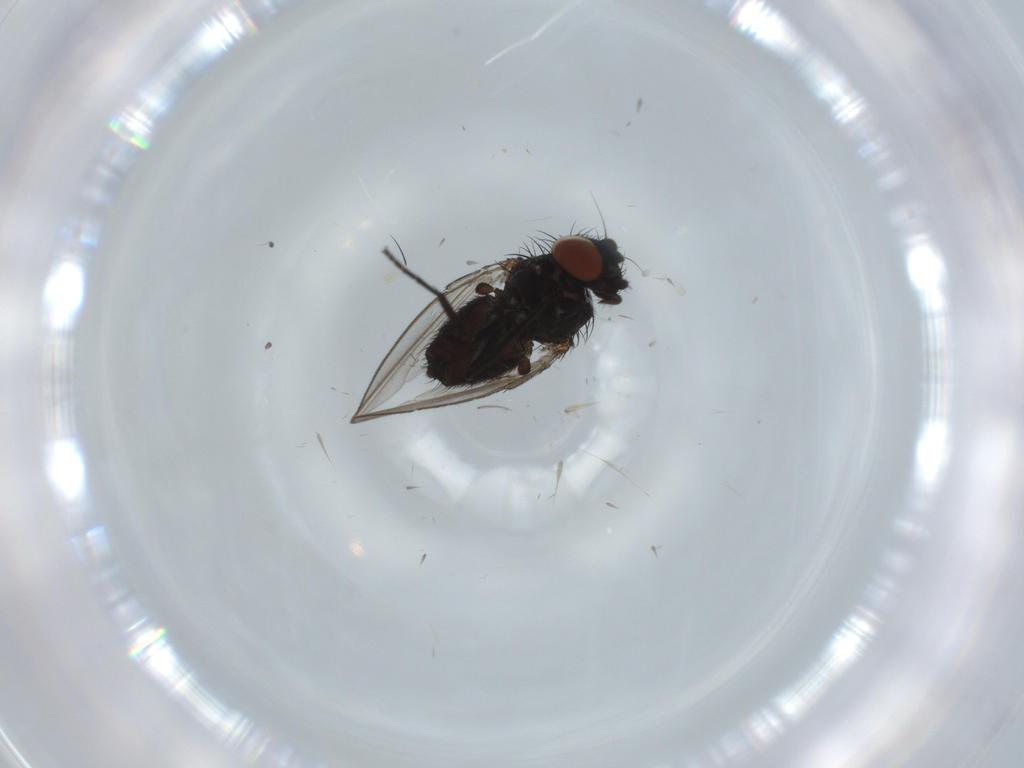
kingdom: Animalia
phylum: Arthropoda
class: Insecta
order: Diptera
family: Milichiidae
